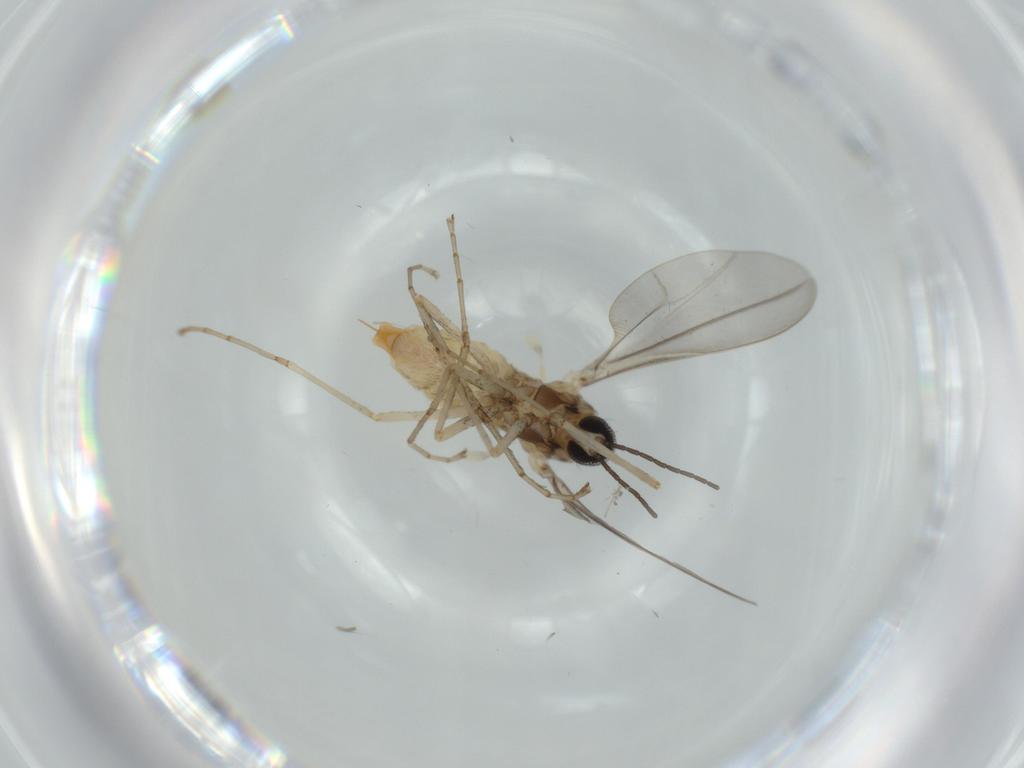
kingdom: Animalia
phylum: Arthropoda
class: Insecta
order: Diptera
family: Cecidomyiidae
